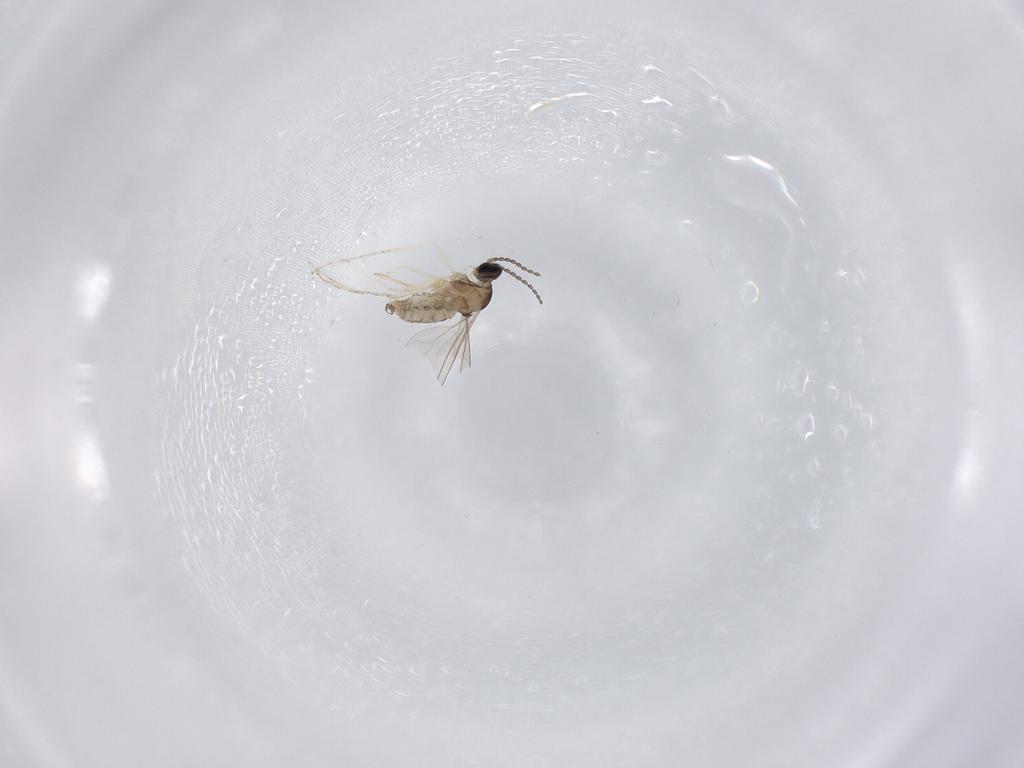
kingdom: Animalia
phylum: Arthropoda
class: Insecta
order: Diptera
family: Cecidomyiidae
